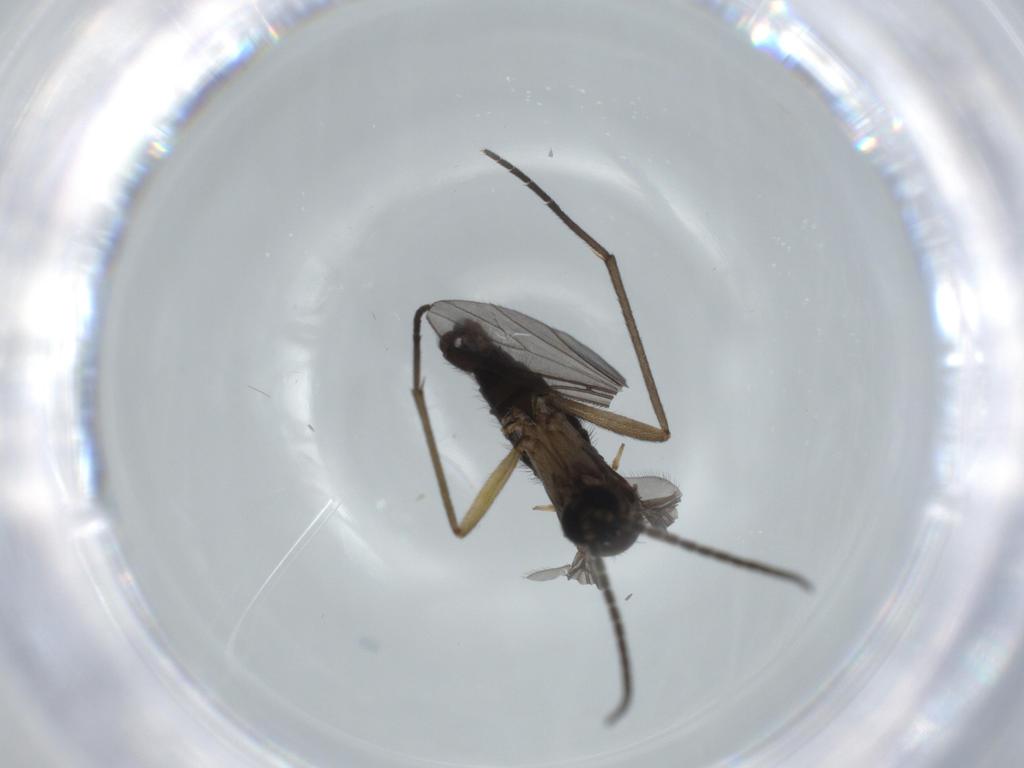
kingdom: Animalia
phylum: Arthropoda
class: Insecta
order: Diptera
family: Sciaridae
